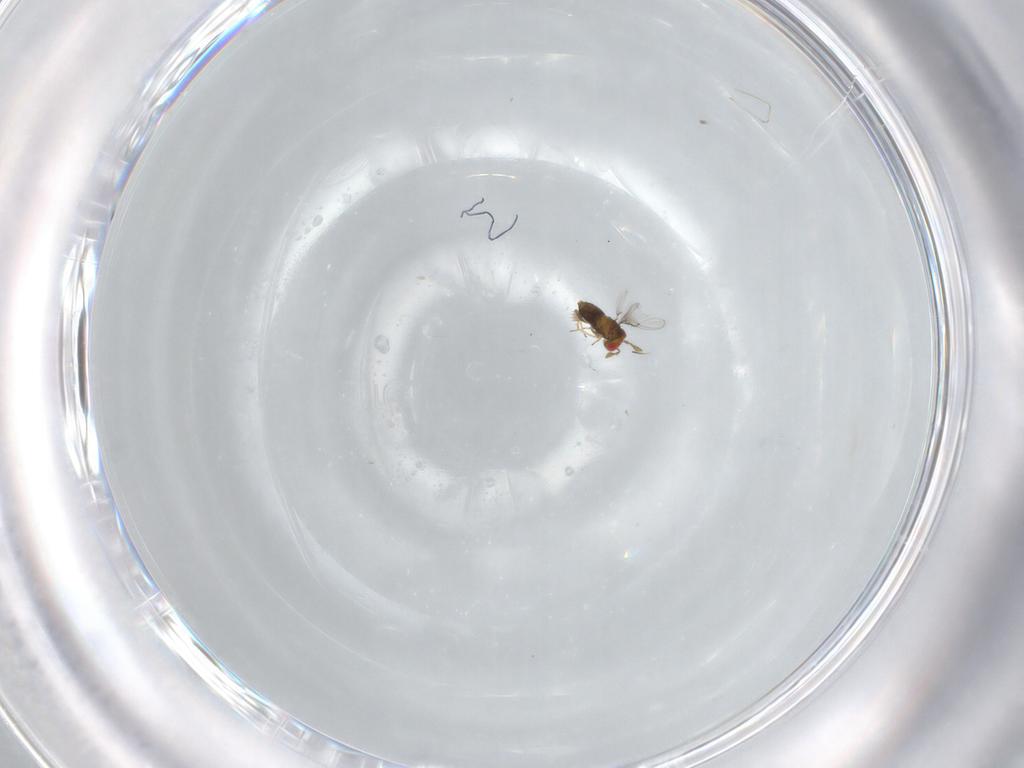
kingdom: Animalia
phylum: Arthropoda
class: Insecta
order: Hymenoptera
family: Trichogrammatidae
